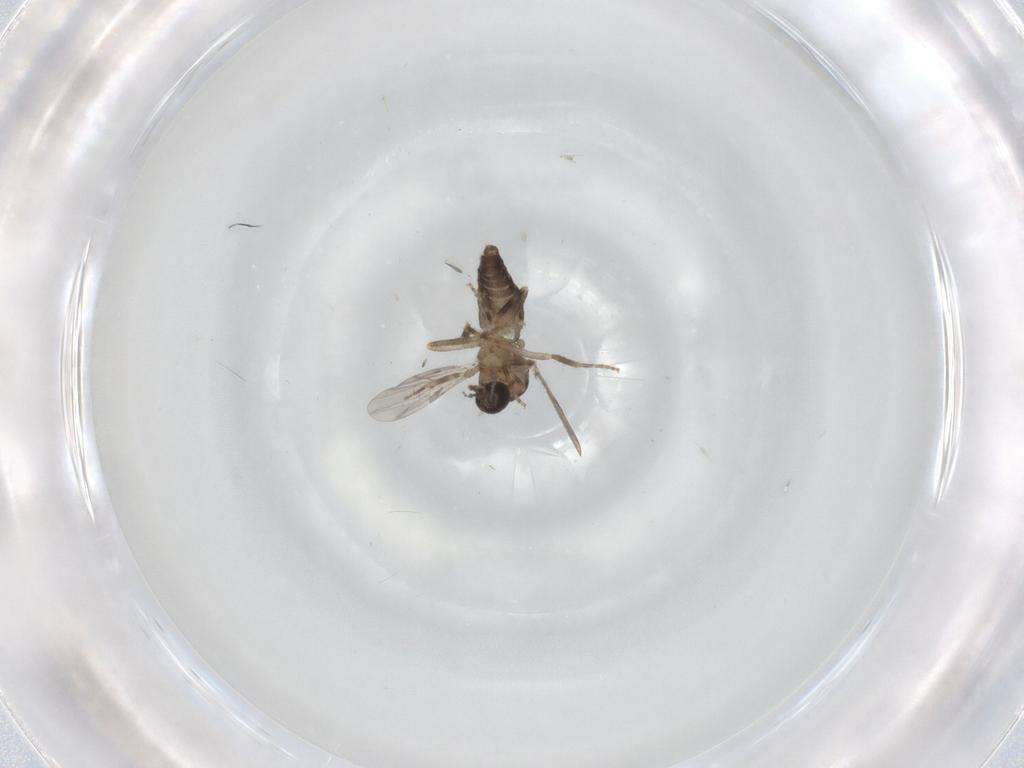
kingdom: Animalia
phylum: Arthropoda
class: Insecta
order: Diptera
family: Ceratopogonidae
